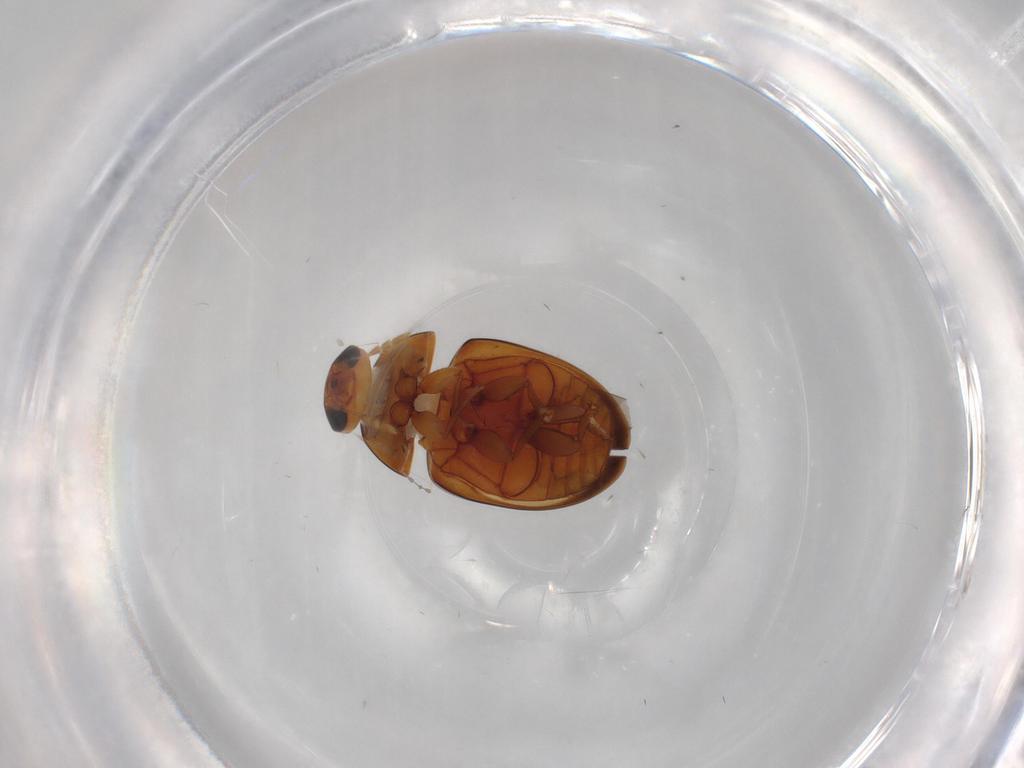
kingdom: Animalia
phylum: Arthropoda
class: Insecta
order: Coleoptera
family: Phalacridae
